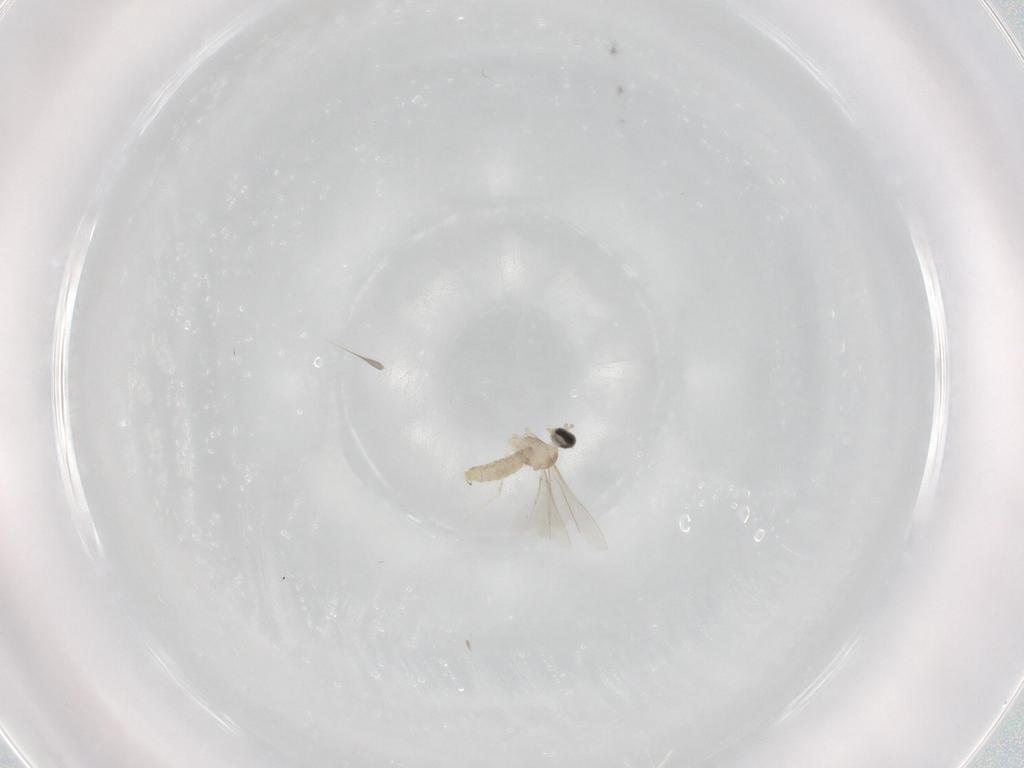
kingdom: Animalia
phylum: Arthropoda
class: Insecta
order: Diptera
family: Cecidomyiidae
